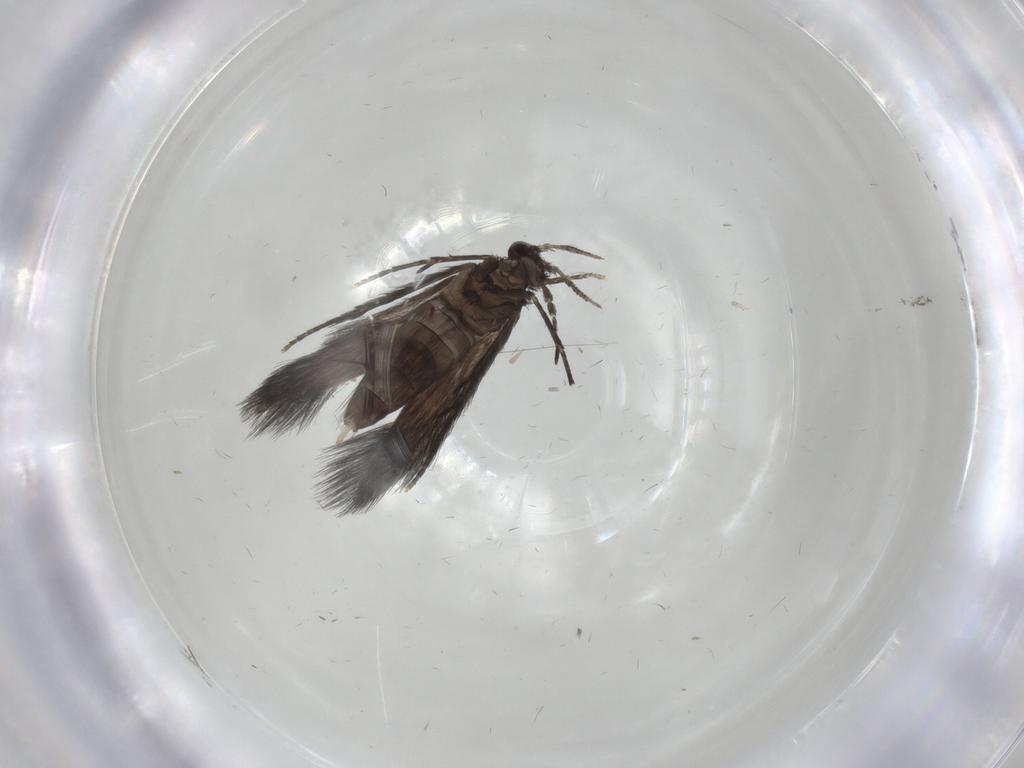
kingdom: Animalia
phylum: Arthropoda
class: Insecta
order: Trichoptera
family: Hydroptilidae
